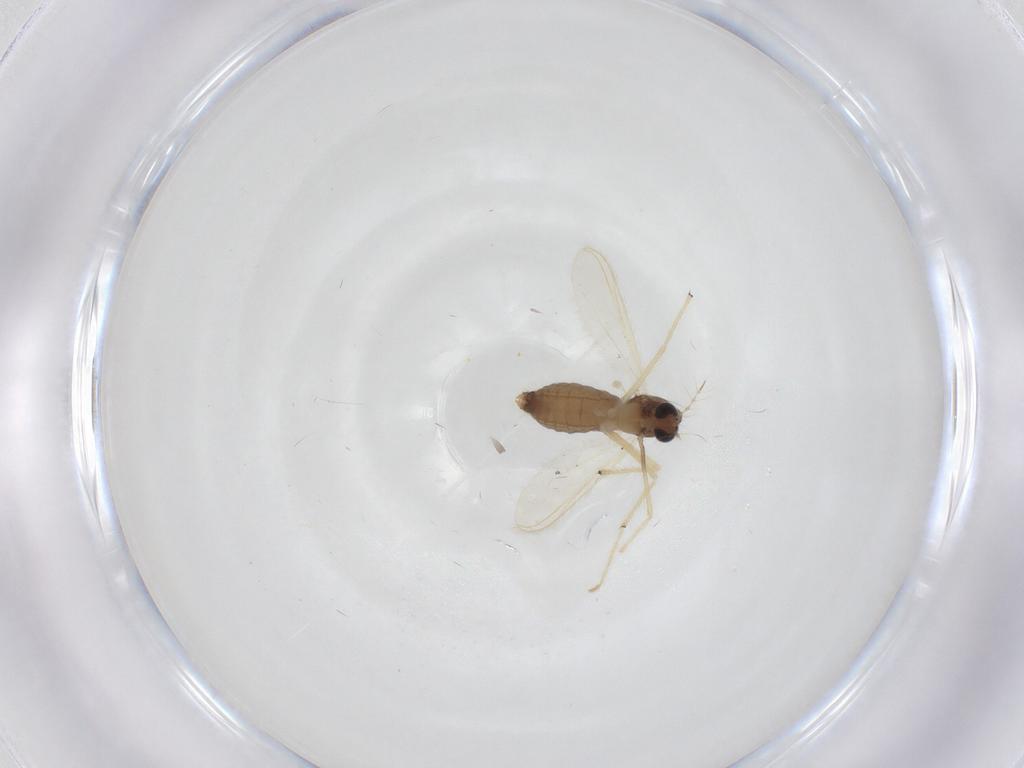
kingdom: Animalia
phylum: Arthropoda
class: Insecta
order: Diptera
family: Chironomidae
